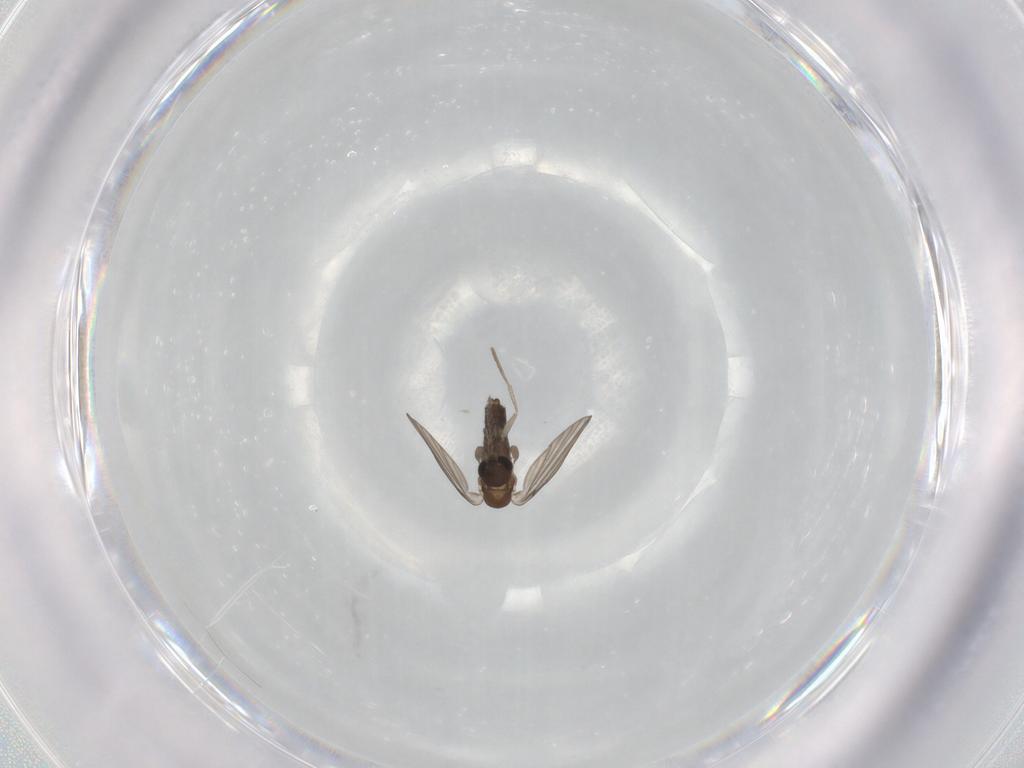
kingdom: Animalia
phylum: Arthropoda
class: Insecta
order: Diptera
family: Cecidomyiidae
